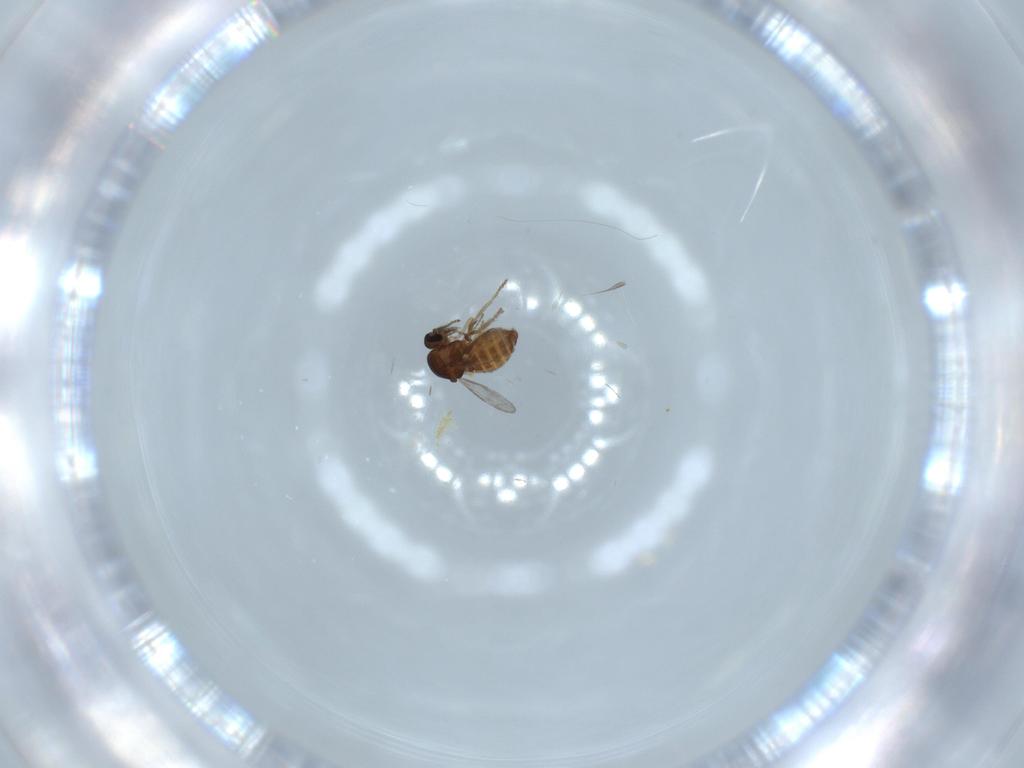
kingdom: Animalia
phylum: Arthropoda
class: Insecta
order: Diptera
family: Ceratopogonidae
